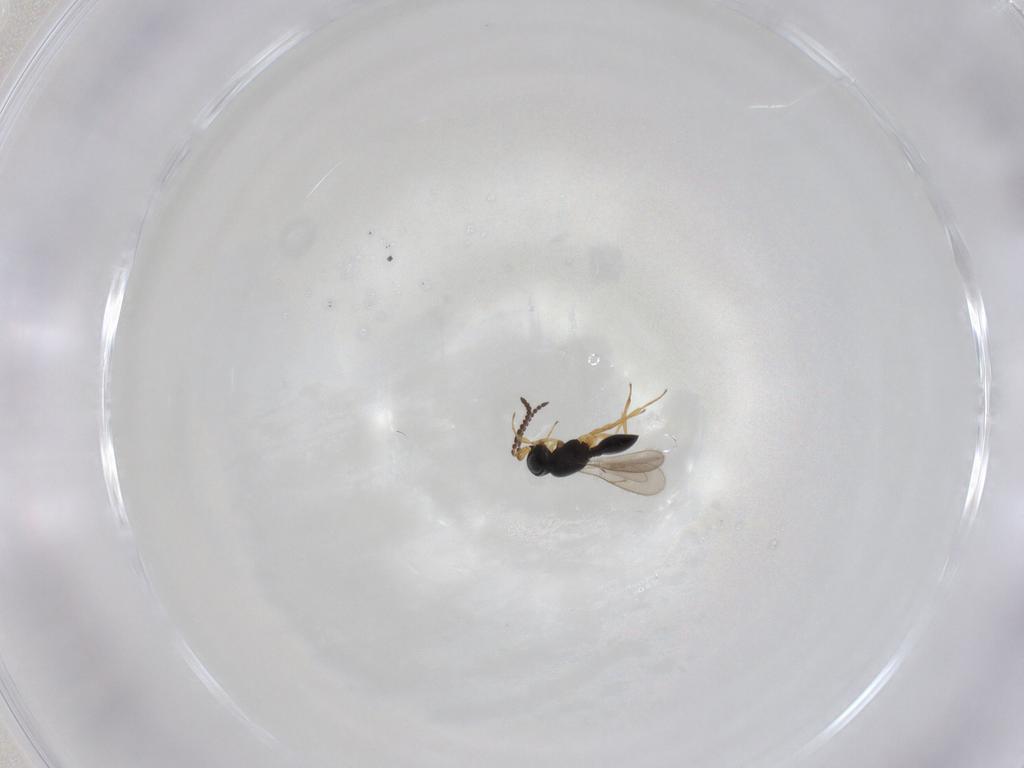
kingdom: Animalia
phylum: Arthropoda
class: Insecta
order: Hymenoptera
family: Scelionidae
